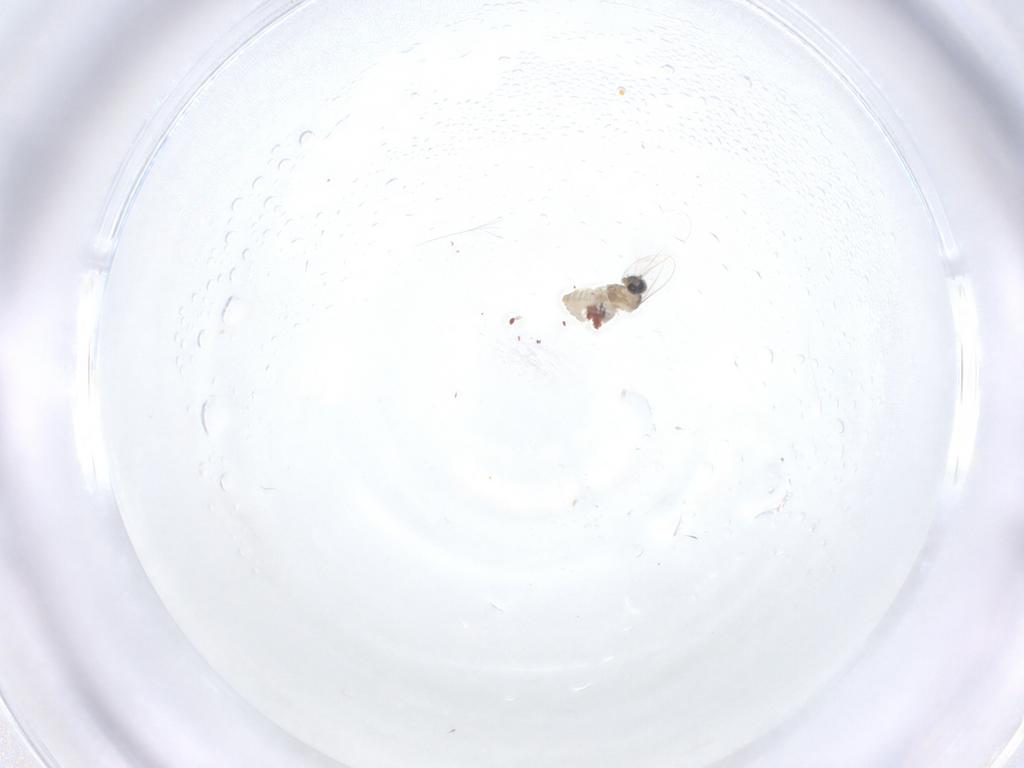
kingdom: Animalia
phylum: Arthropoda
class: Insecta
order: Diptera
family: Cecidomyiidae
